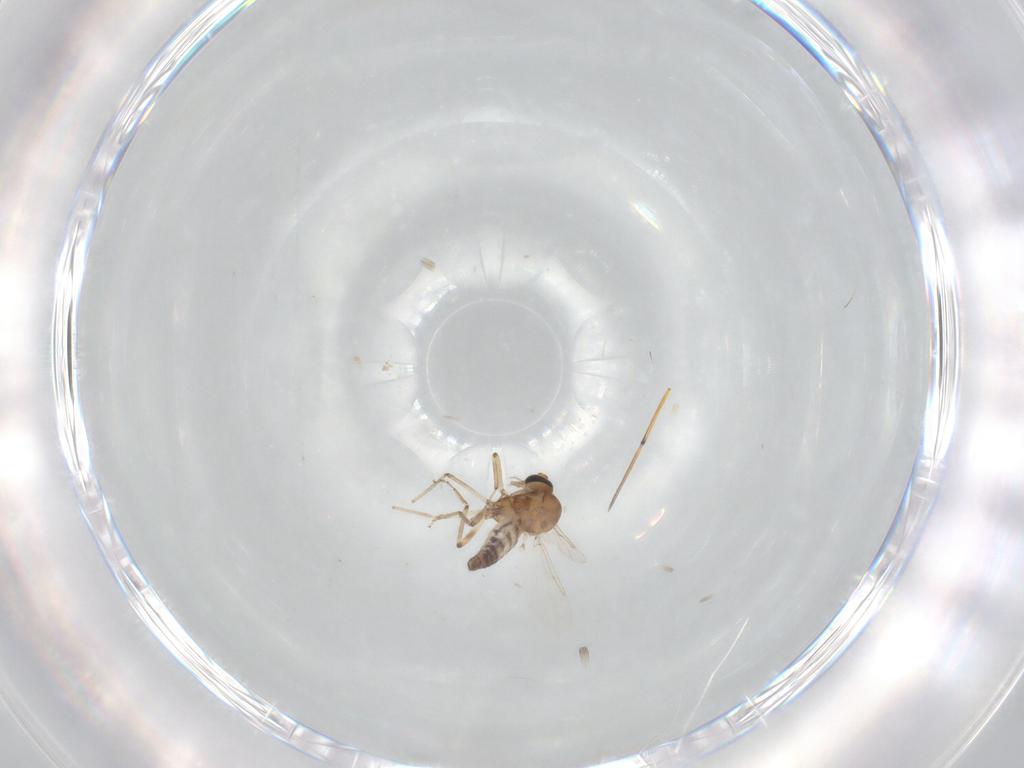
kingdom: Animalia
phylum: Arthropoda
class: Insecta
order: Diptera
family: Ceratopogonidae
